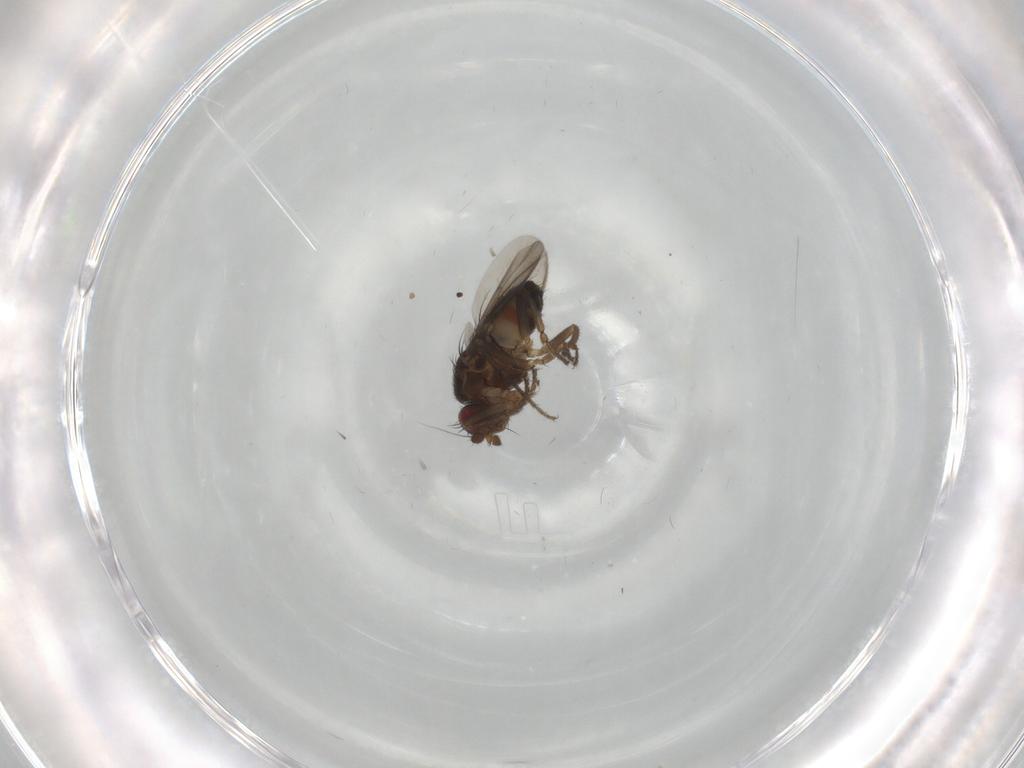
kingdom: Animalia
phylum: Arthropoda
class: Insecta
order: Diptera
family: Sphaeroceridae
